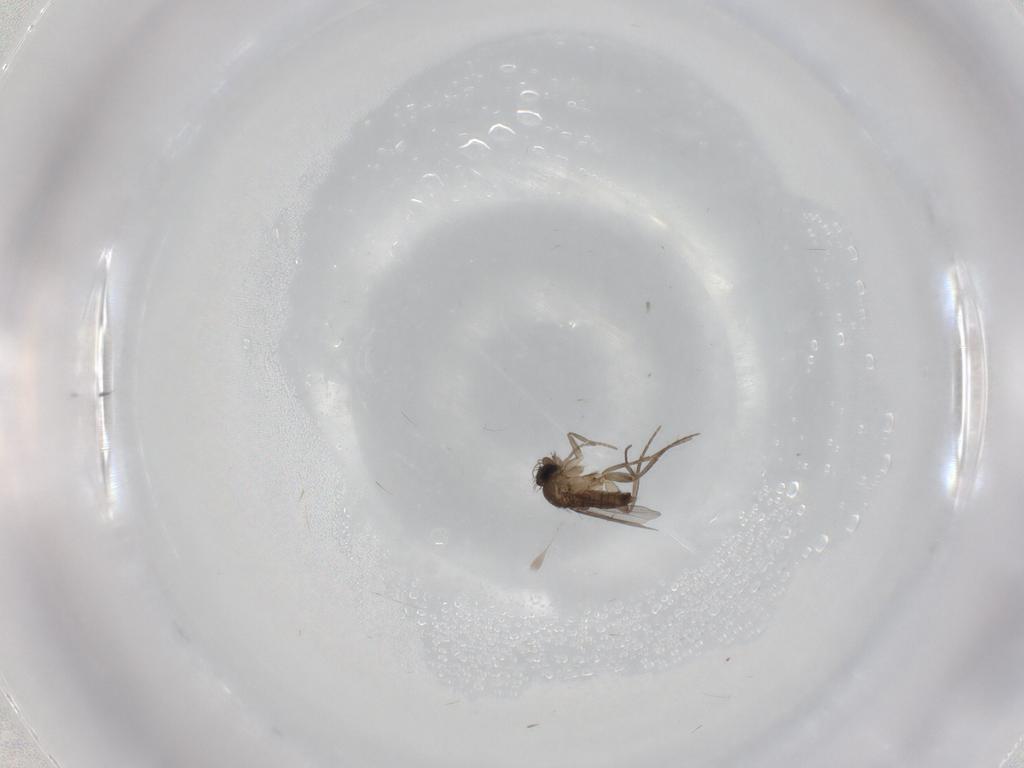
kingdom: Animalia
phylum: Arthropoda
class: Insecta
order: Diptera
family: Phoridae
